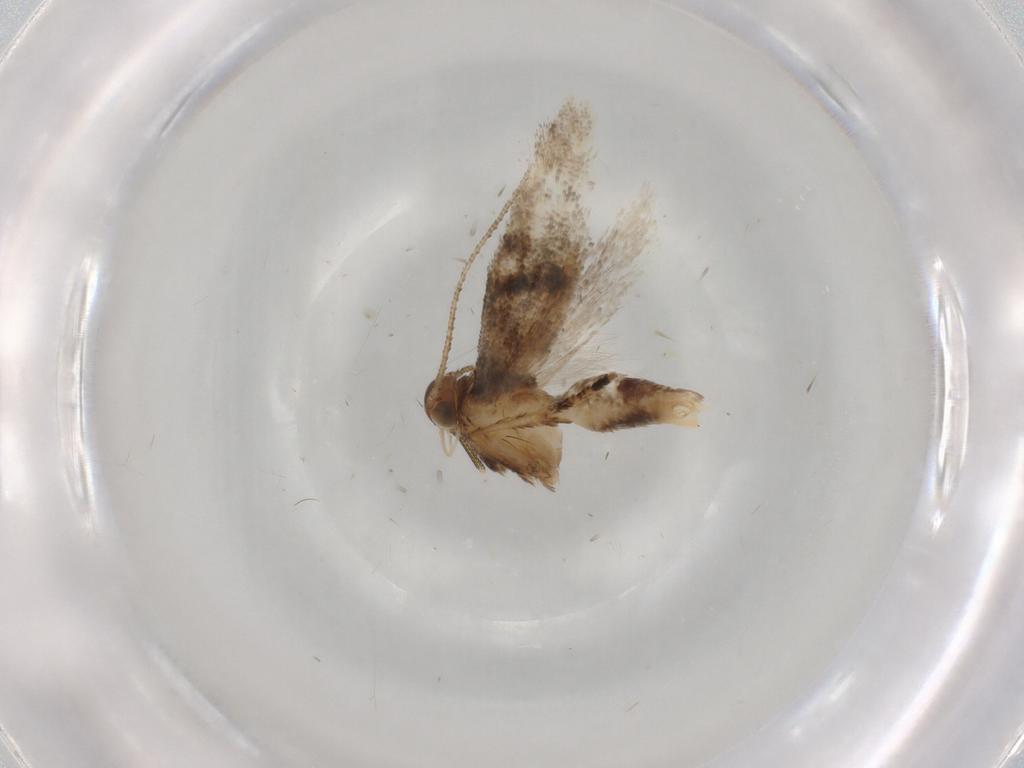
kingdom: Animalia
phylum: Arthropoda
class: Insecta
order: Lepidoptera
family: Gelechiidae
